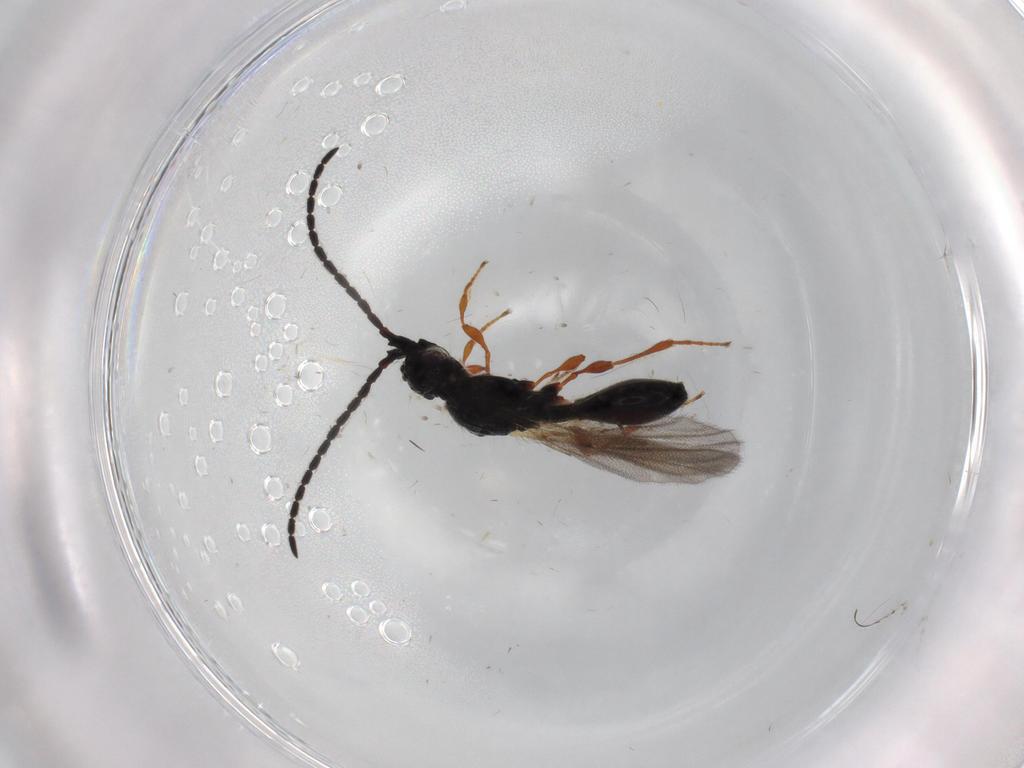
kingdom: Animalia
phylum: Arthropoda
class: Insecta
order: Hymenoptera
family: Diapriidae
